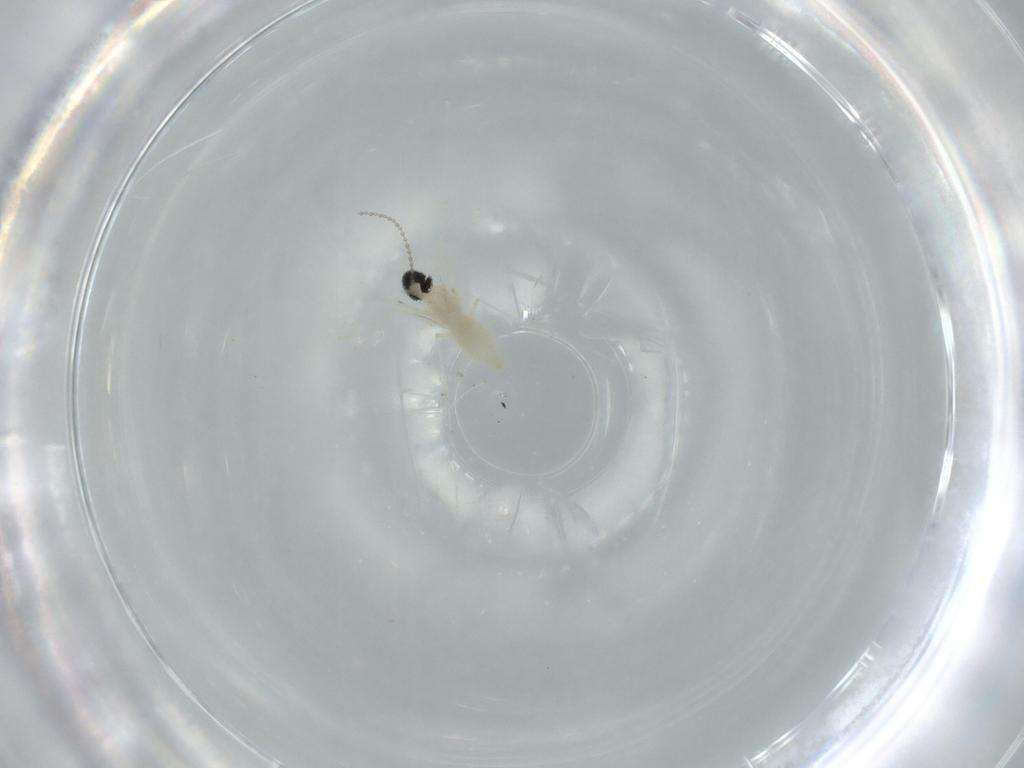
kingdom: Animalia
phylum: Arthropoda
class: Insecta
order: Diptera
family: Cecidomyiidae
